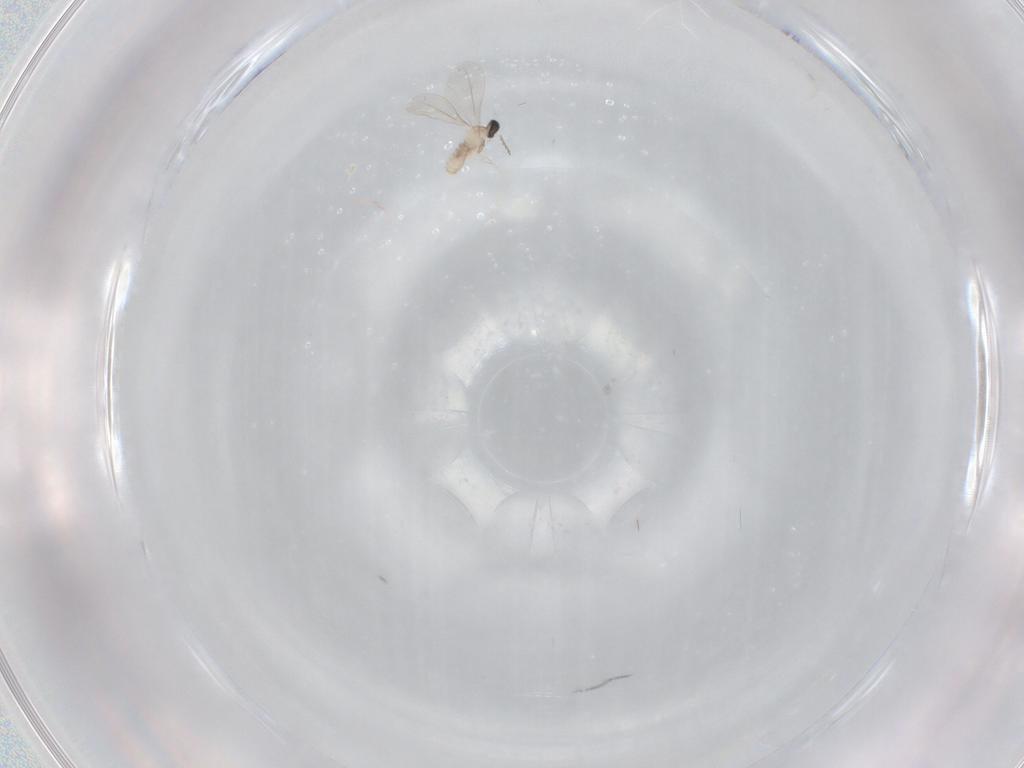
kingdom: Animalia
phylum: Arthropoda
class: Insecta
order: Diptera
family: Cecidomyiidae
